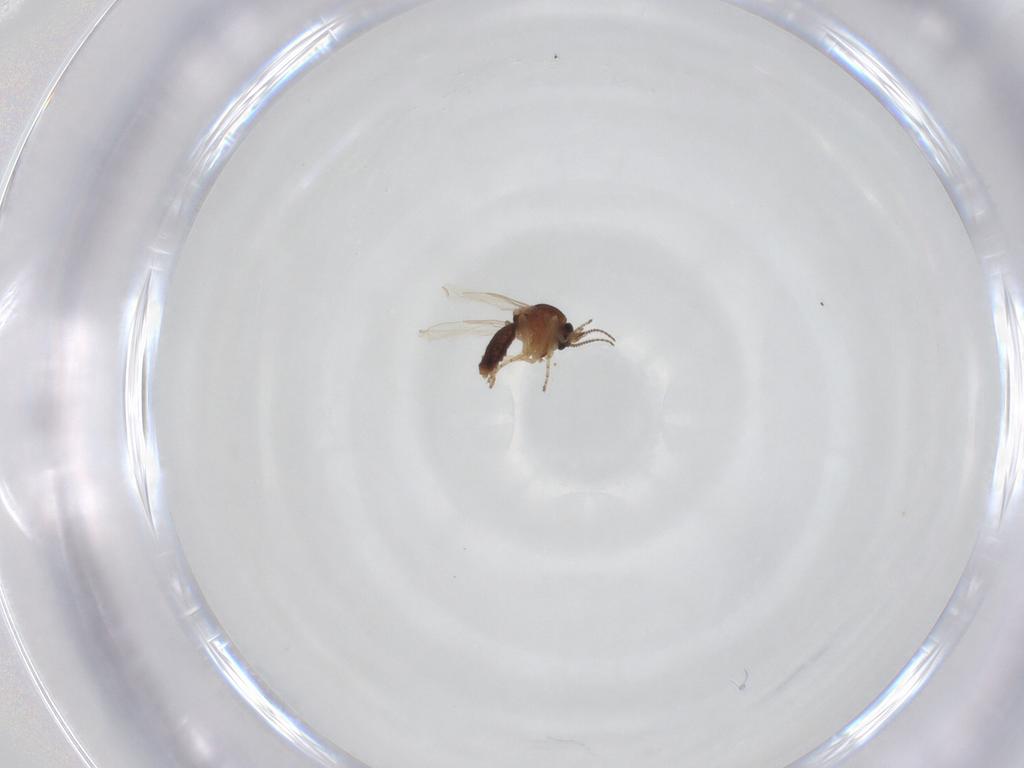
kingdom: Animalia
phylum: Arthropoda
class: Insecta
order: Diptera
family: Ceratopogonidae
